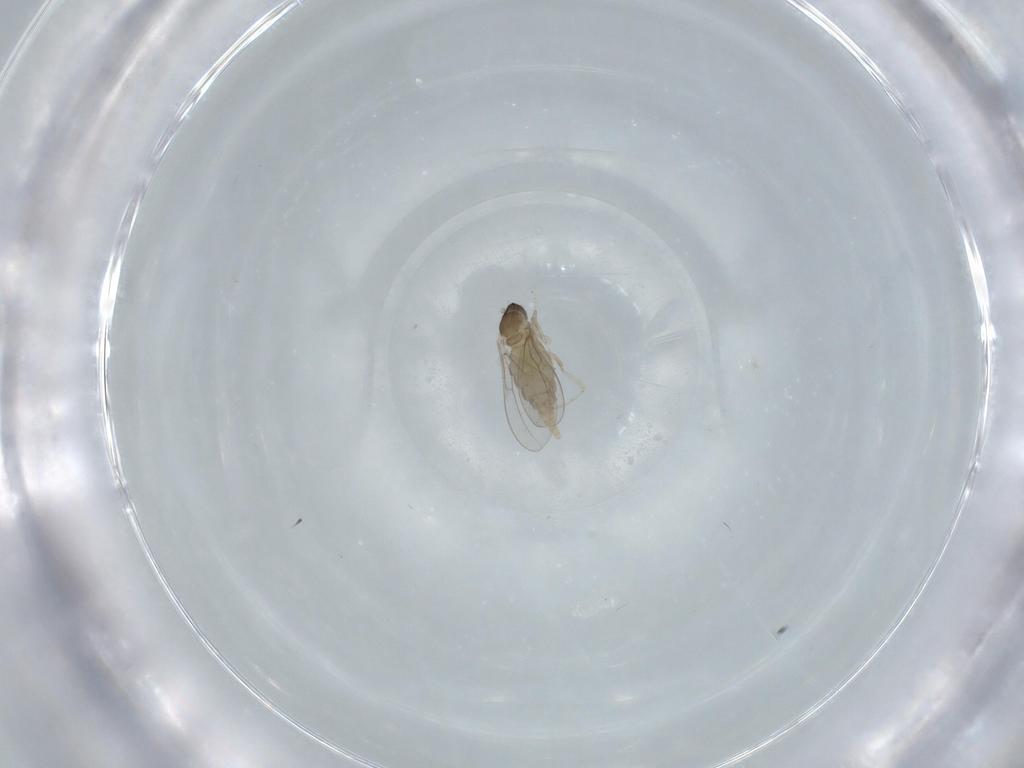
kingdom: Animalia
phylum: Arthropoda
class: Insecta
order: Diptera
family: Cecidomyiidae
